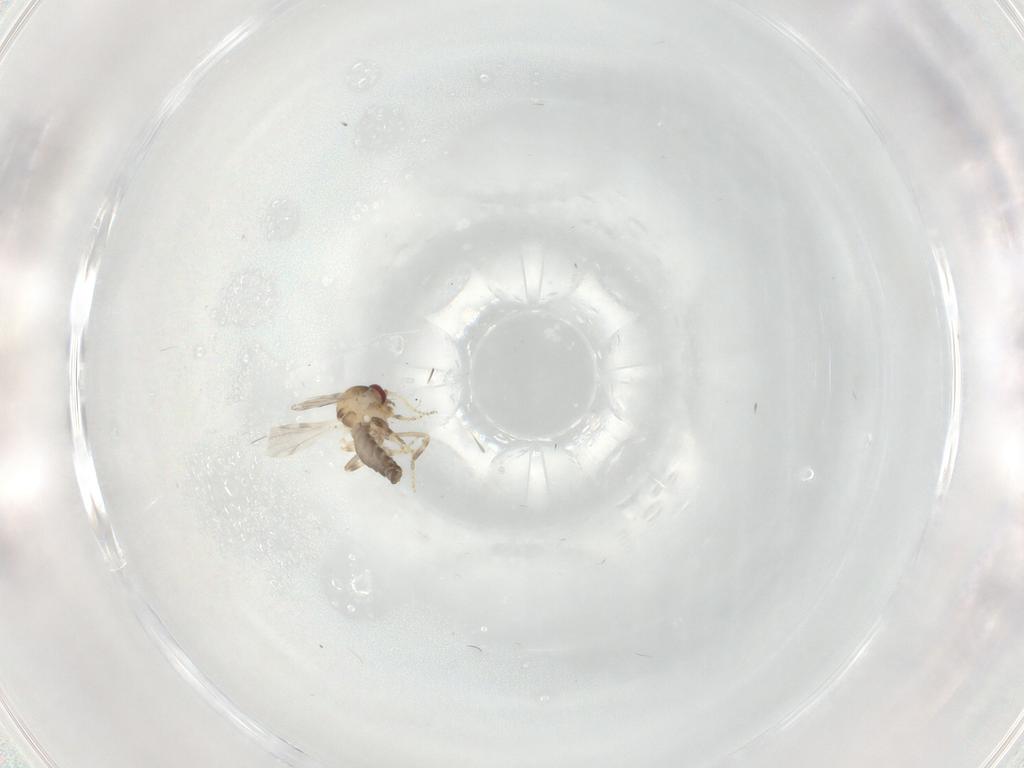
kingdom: Animalia
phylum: Arthropoda
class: Insecta
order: Diptera
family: Ceratopogonidae
